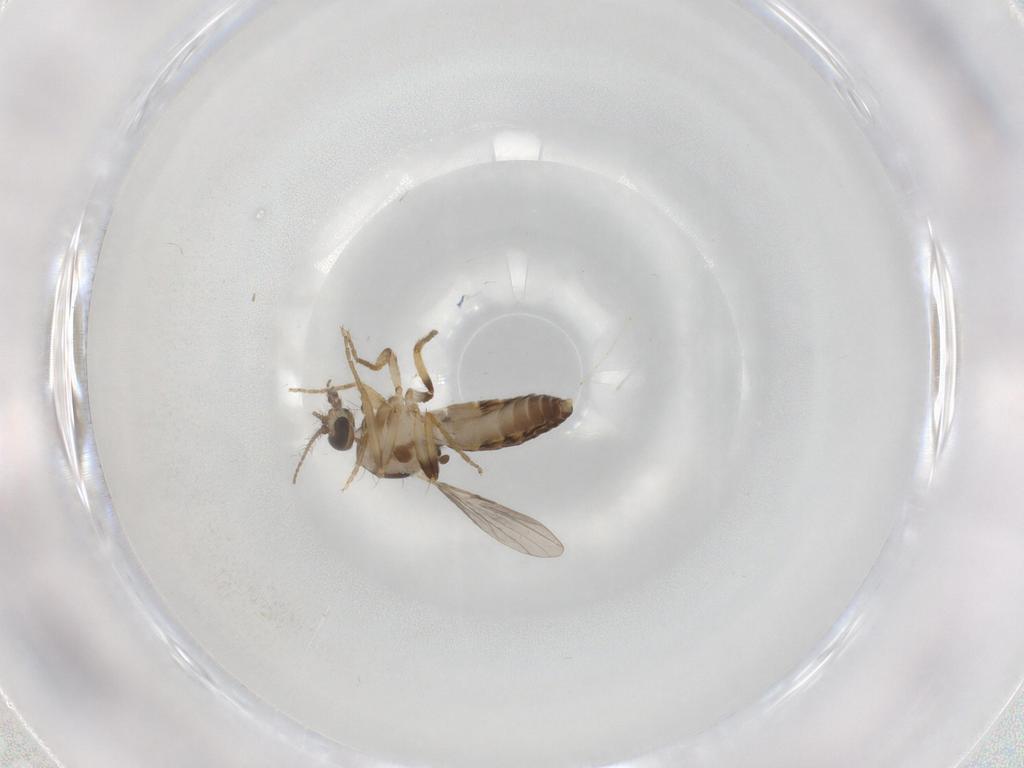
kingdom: Animalia
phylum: Arthropoda
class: Insecta
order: Diptera
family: Ceratopogonidae
